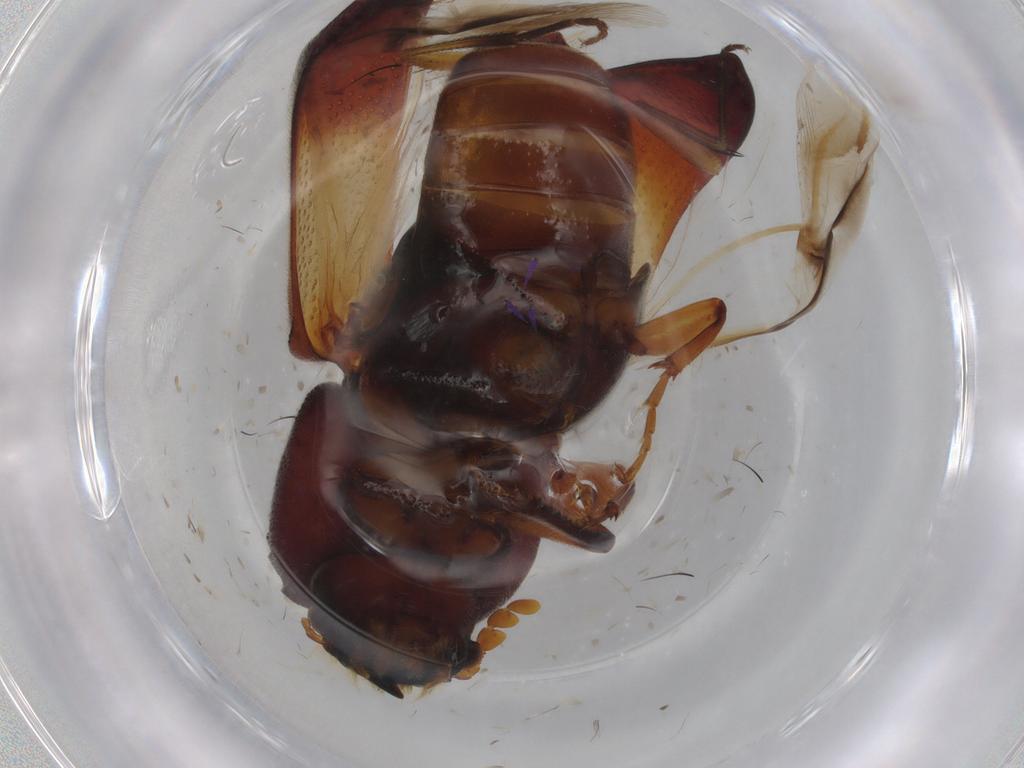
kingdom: Animalia
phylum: Arthropoda
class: Insecta
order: Coleoptera
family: Bostrichidae
